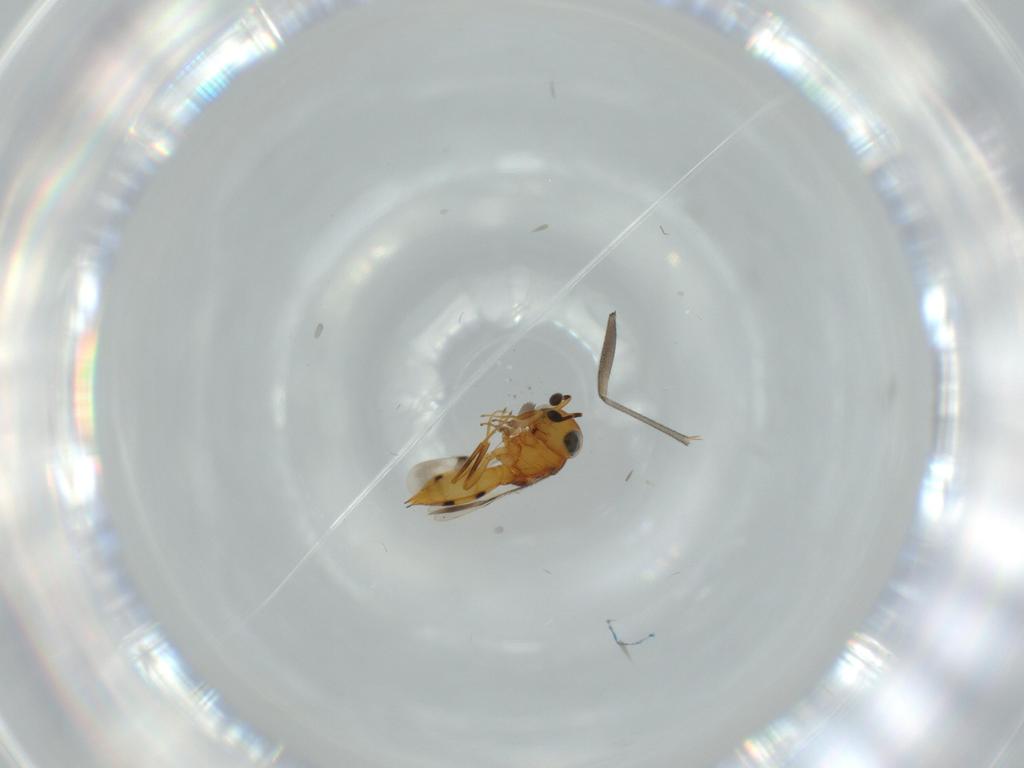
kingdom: Animalia
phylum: Arthropoda
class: Insecta
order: Hymenoptera
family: Scelionidae
